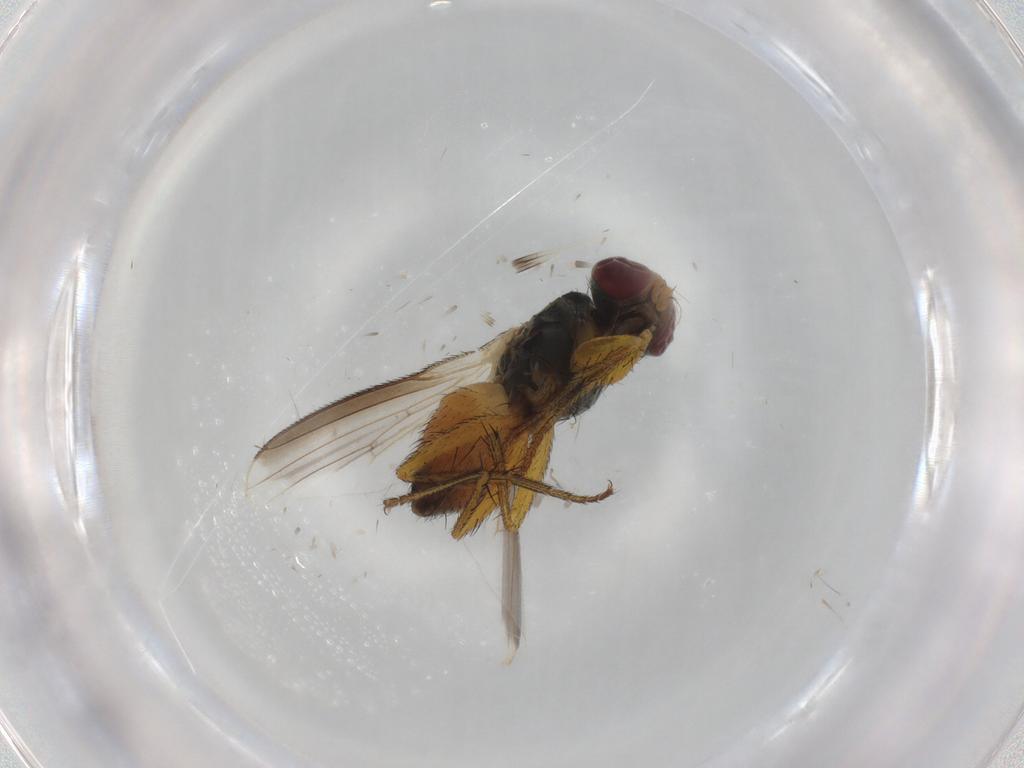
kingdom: Animalia
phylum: Arthropoda
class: Insecta
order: Diptera
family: Muscidae
